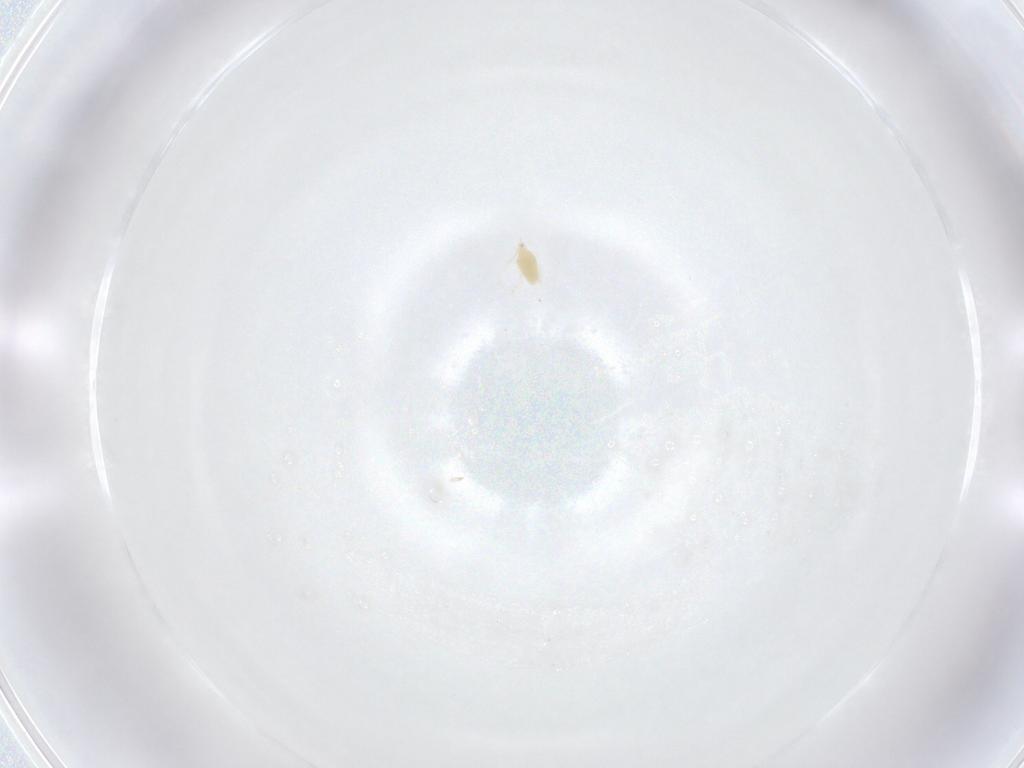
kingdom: Animalia
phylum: Arthropoda
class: Arachnida
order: Trombidiformes
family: Eupodidae
